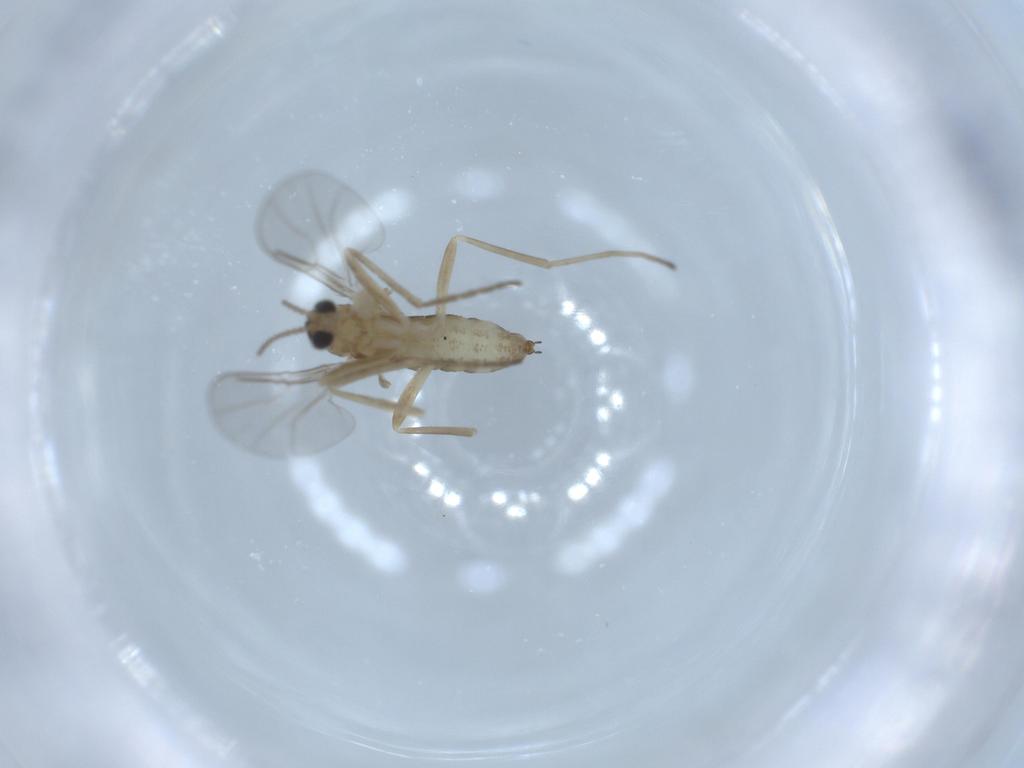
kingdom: Animalia
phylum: Arthropoda
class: Insecta
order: Diptera
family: Cecidomyiidae
